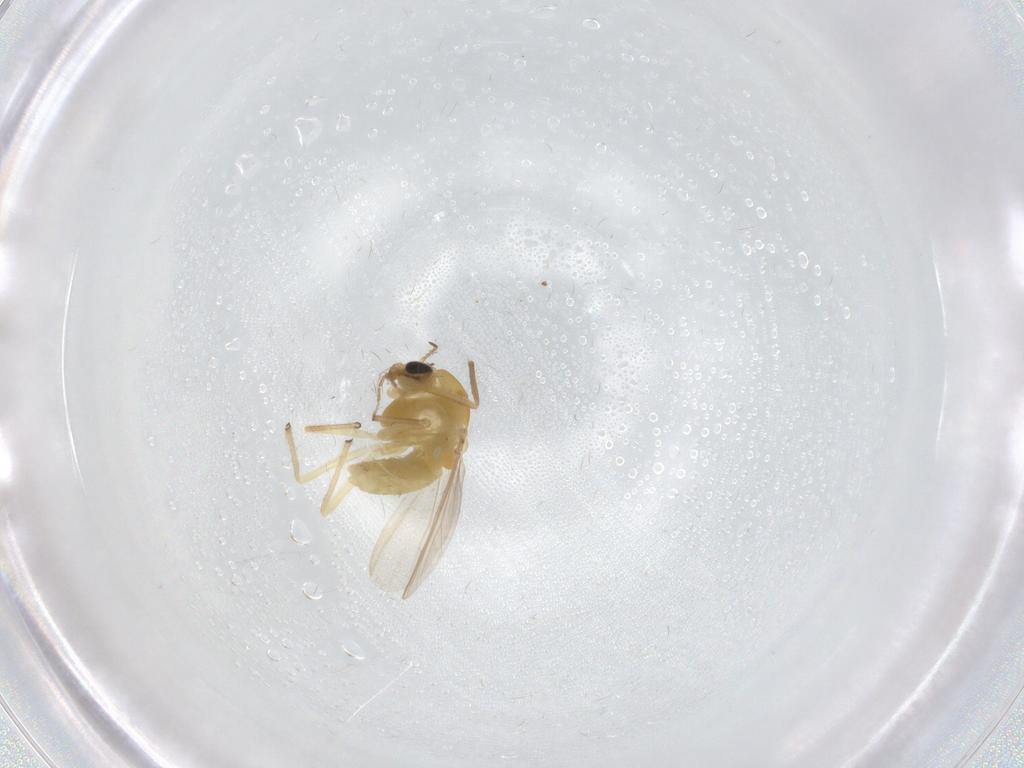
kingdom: Animalia
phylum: Arthropoda
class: Insecta
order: Diptera
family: Chironomidae
